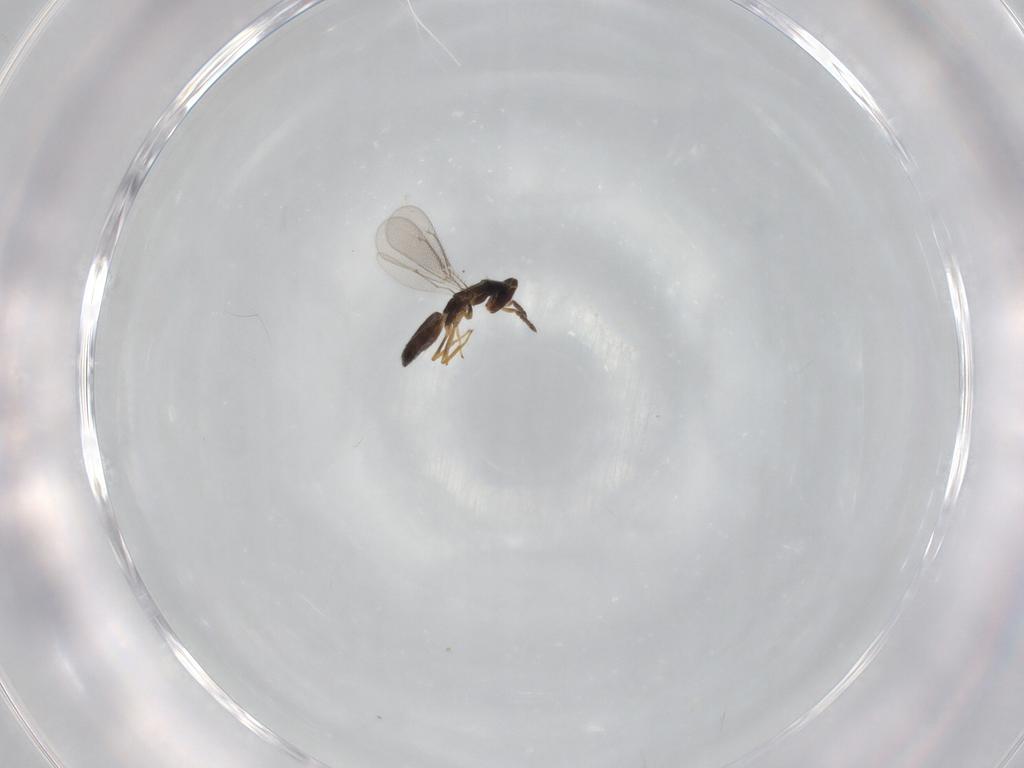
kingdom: Animalia
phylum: Arthropoda
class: Insecta
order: Hymenoptera
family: Eulophidae
